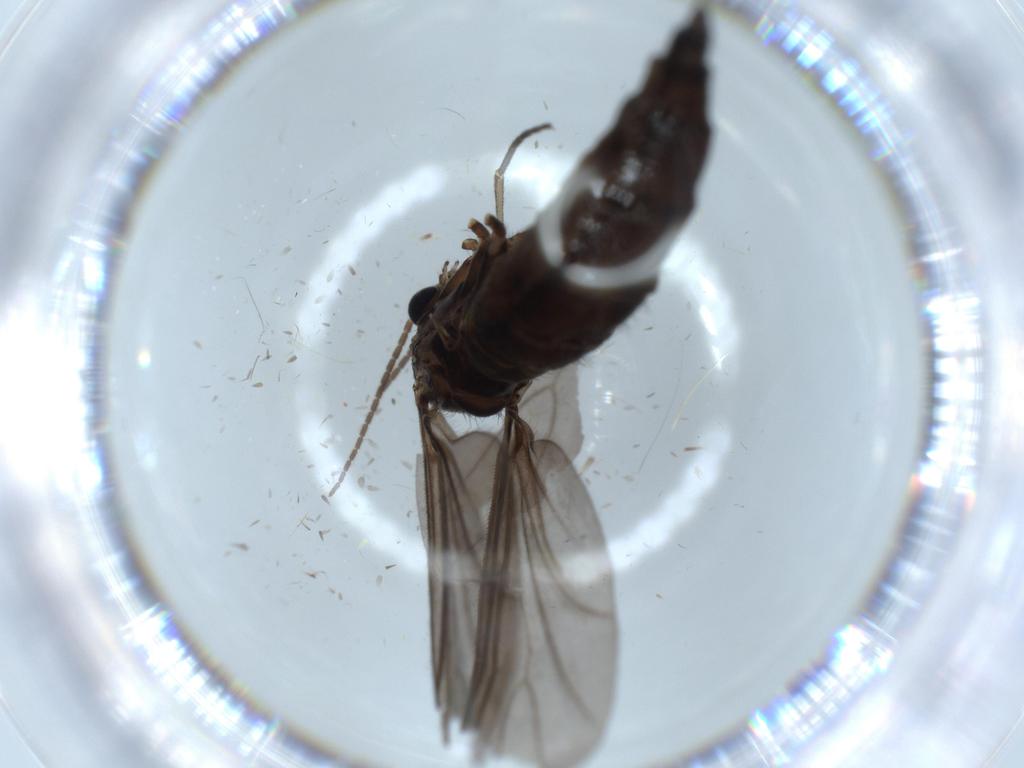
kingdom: Animalia
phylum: Arthropoda
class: Insecta
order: Diptera
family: Sciaridae
